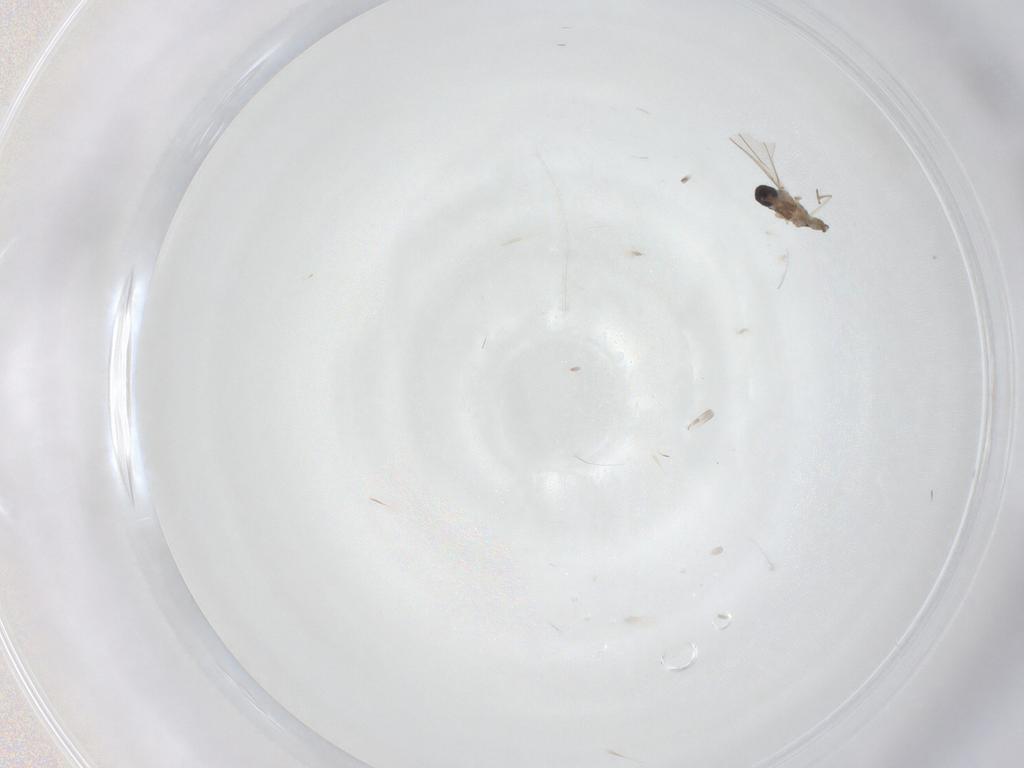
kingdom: Animalia
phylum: Arthropoda
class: Insecta
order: Diptera
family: Cecidomyiidae
